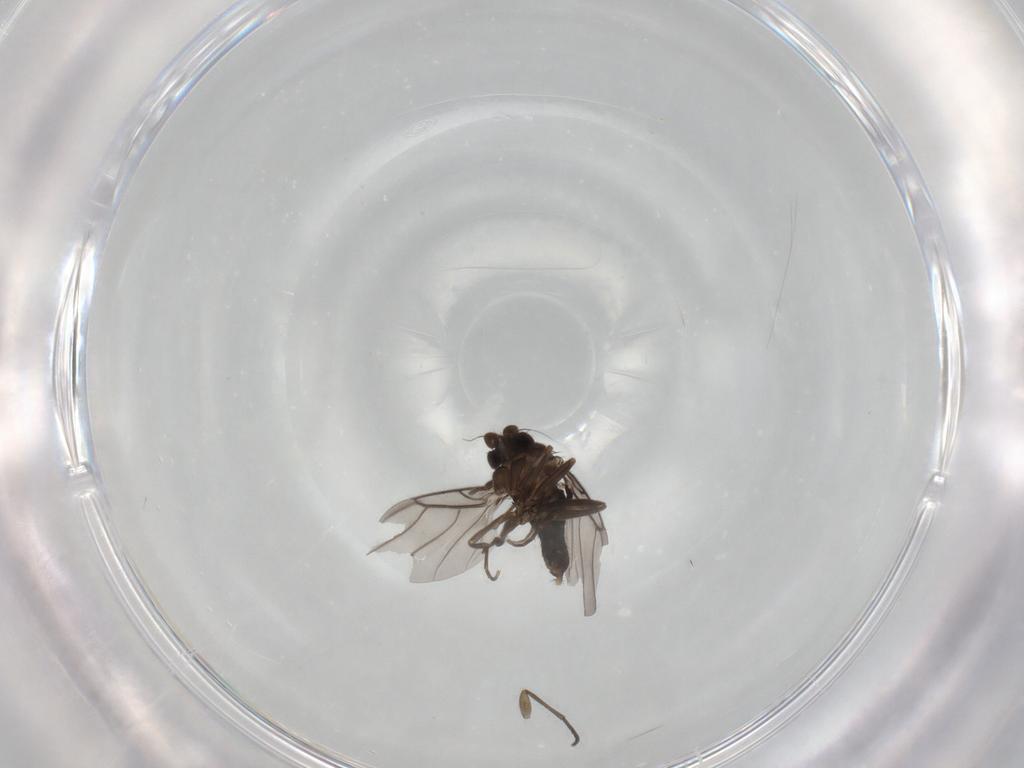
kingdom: Animalia
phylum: Arthropoda
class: Insecta
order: Diptera
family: Phoridae
